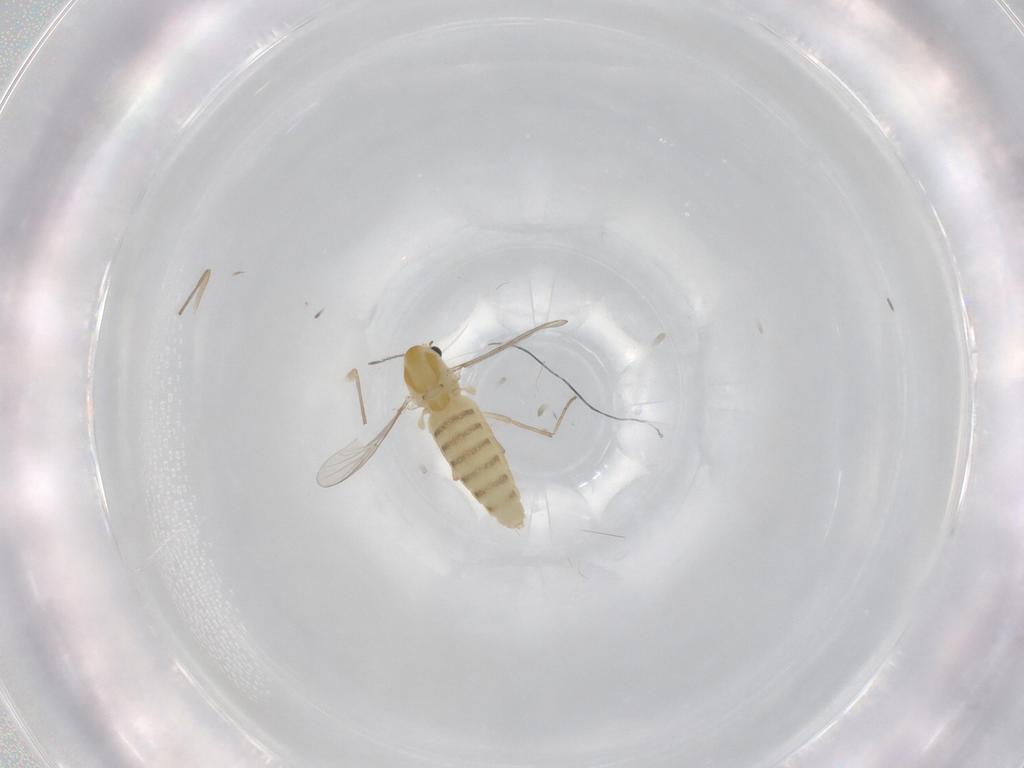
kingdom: Animalia
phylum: Arthropoda
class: Insecta
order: Diptera
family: Chironomidae
